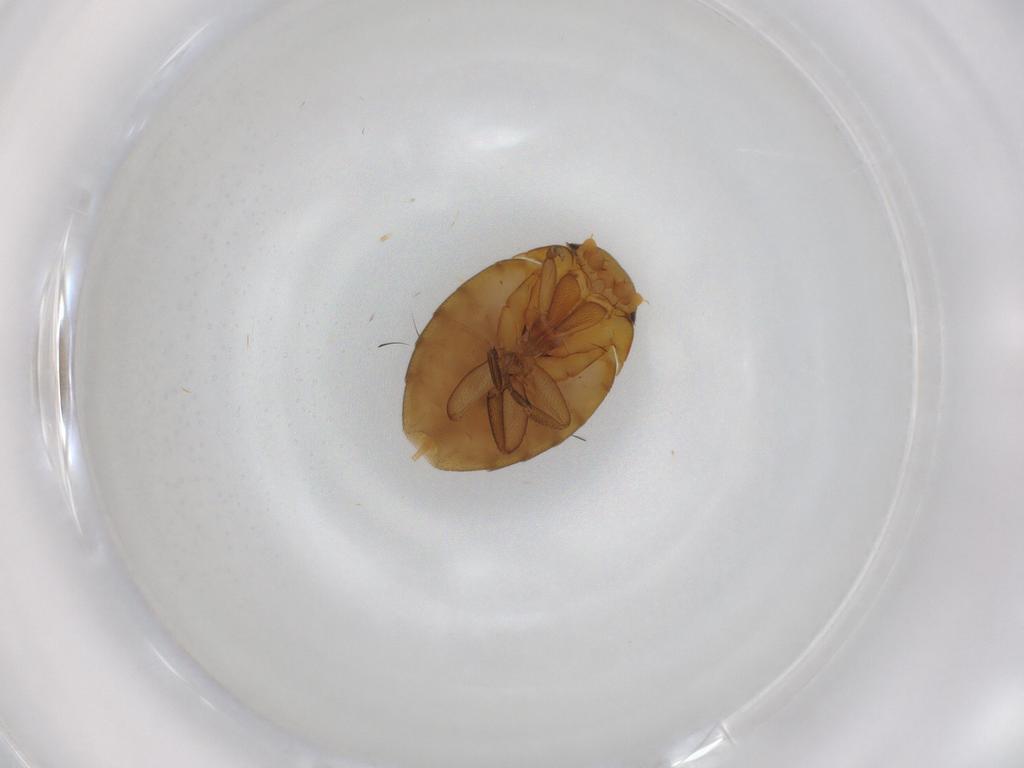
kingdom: Animalia
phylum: Arthropoda
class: Insecta
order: Diptera
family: Phoridae
